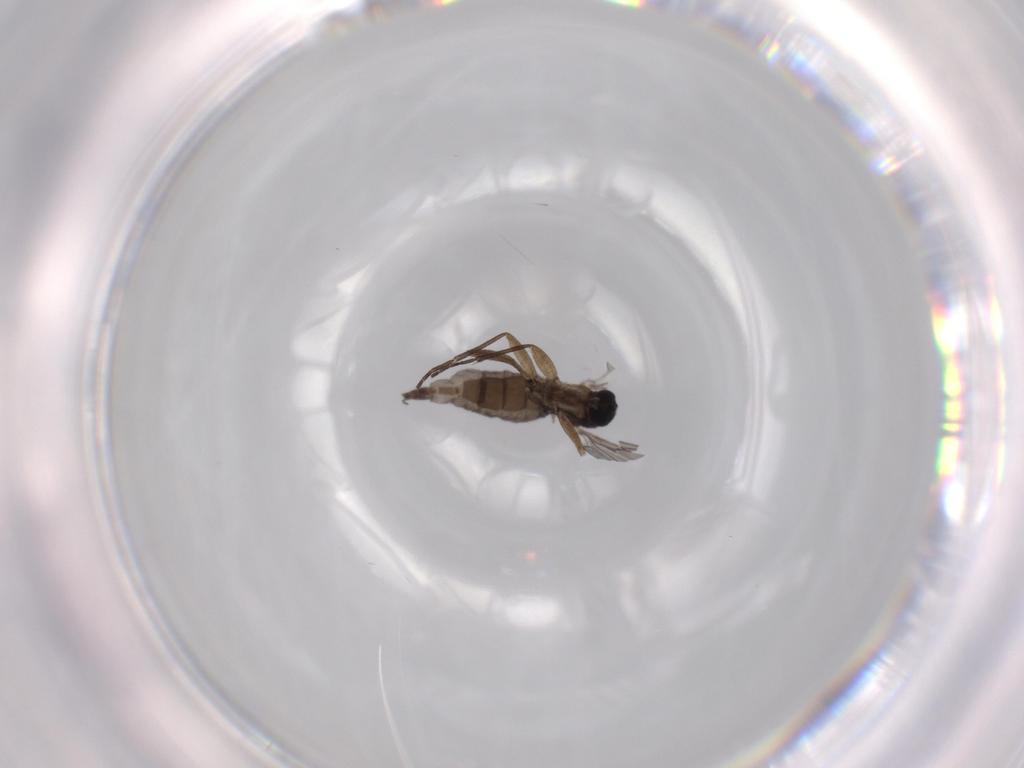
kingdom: Animalia
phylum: Arthropoda
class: Insecta
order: Diptera
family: Sciaridae
